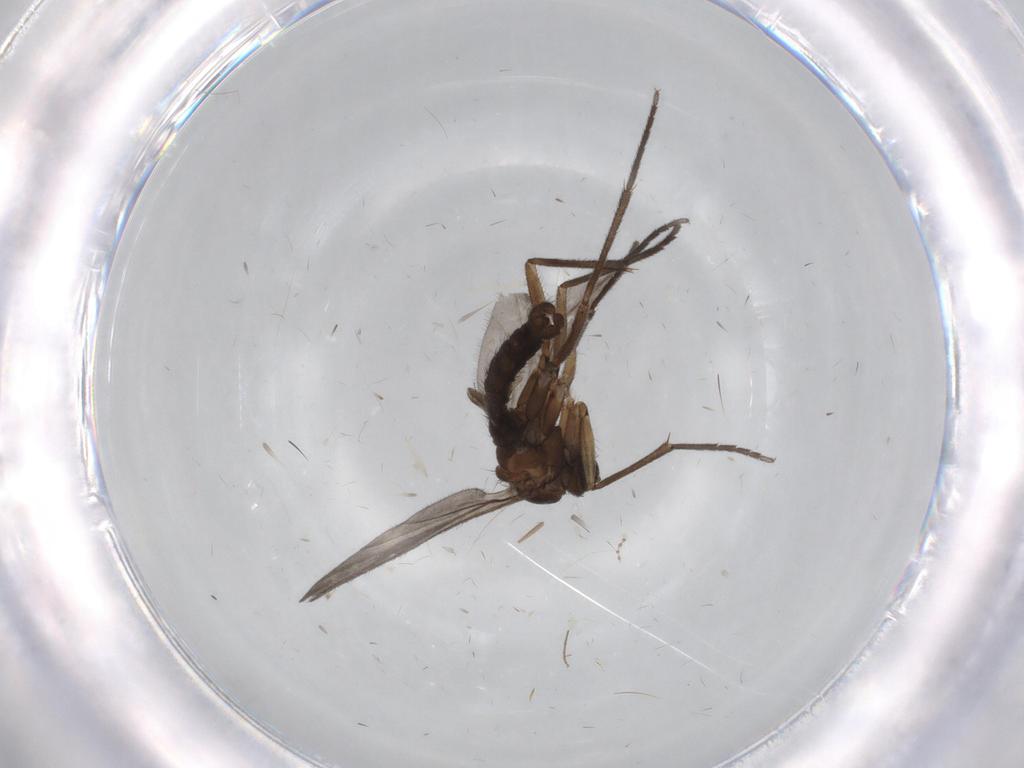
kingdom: Animalia
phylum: Arthropoda
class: Insecta
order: Diptera
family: Sciaridae
